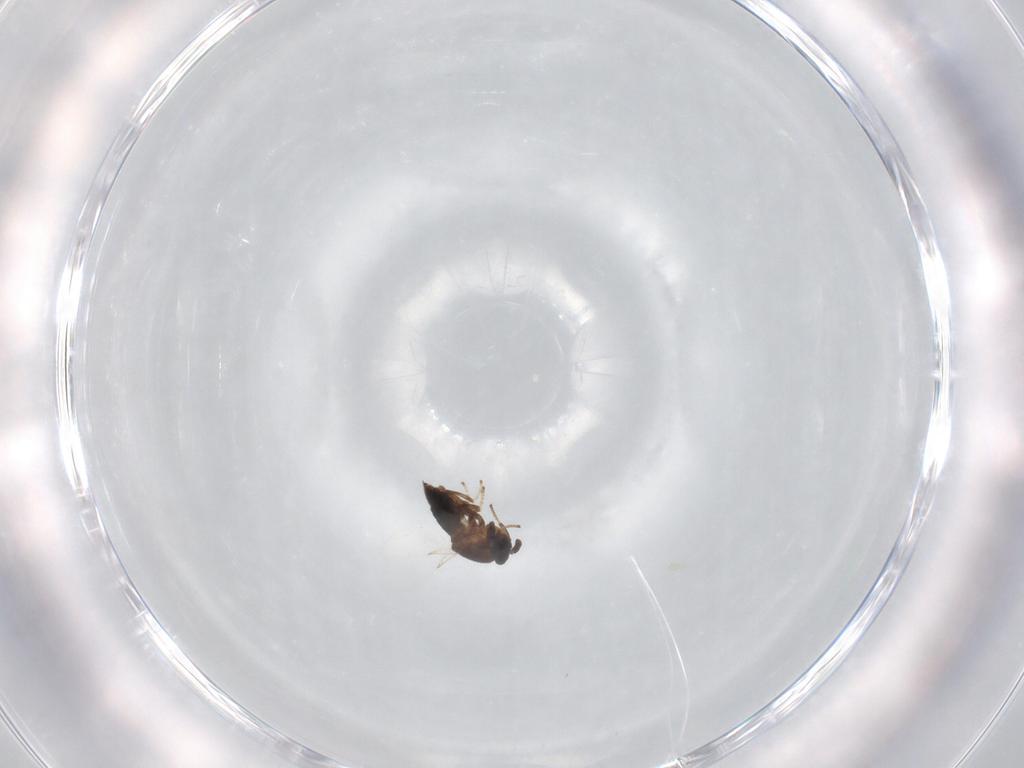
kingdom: Animalia
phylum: Arthropoda
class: Insecta
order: Diptera
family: Scatopsidae
